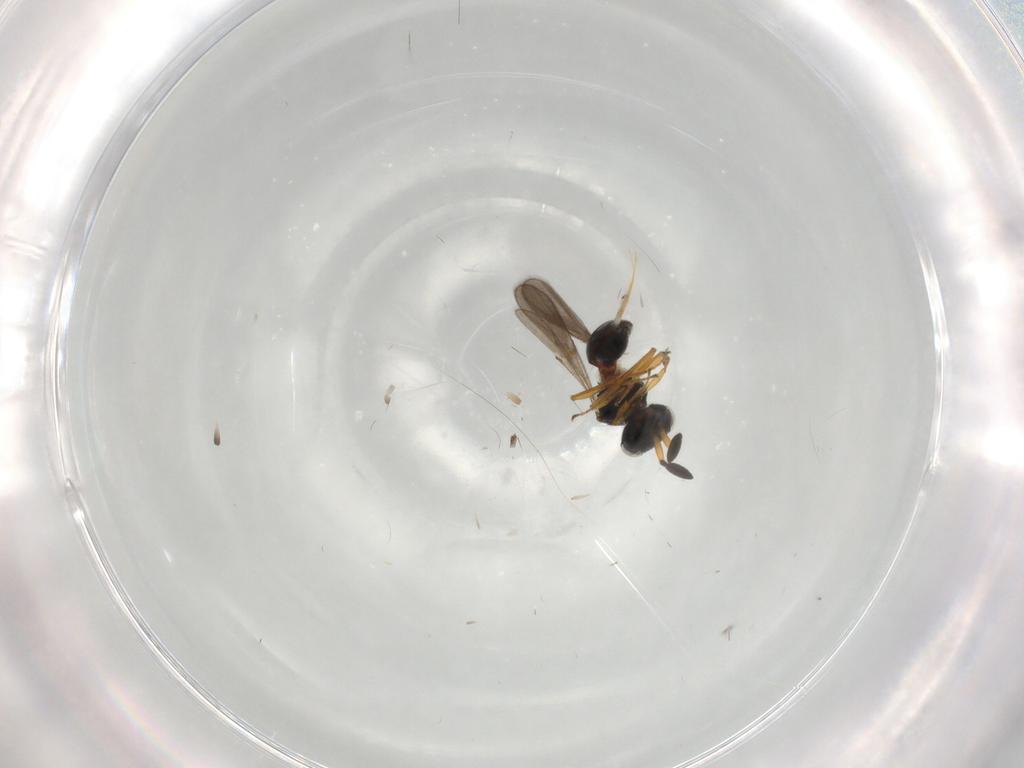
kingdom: Animalia
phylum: Arthropoda
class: Insecta
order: Hymenoptera
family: Scelionidae
